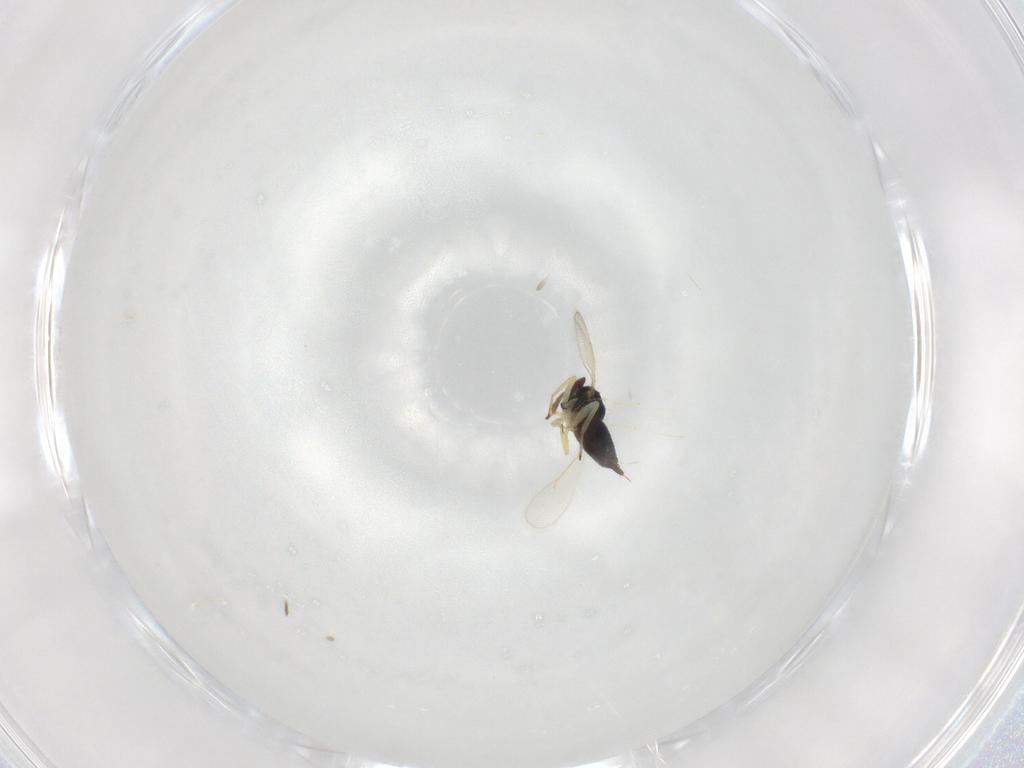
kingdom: Animalia
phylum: Arthropoda
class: Insecta
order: Hymenoptera
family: Eulophidae
